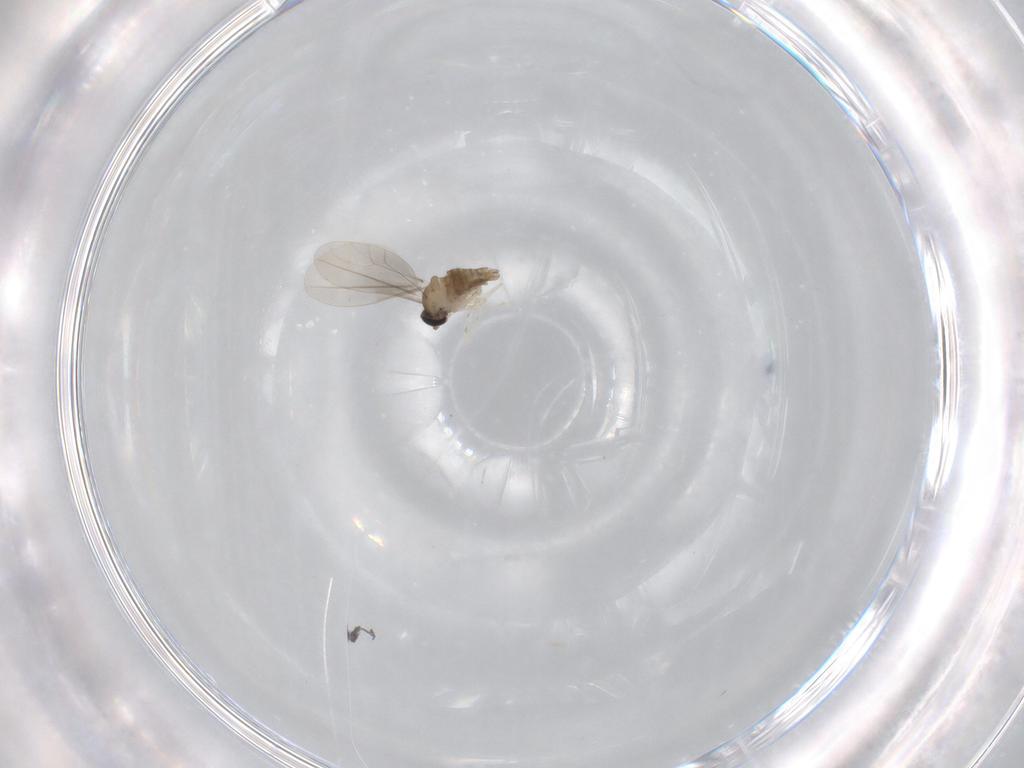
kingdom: Animalia
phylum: Arthropoda
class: Insecta
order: Diptera
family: Cecidomyiidae
